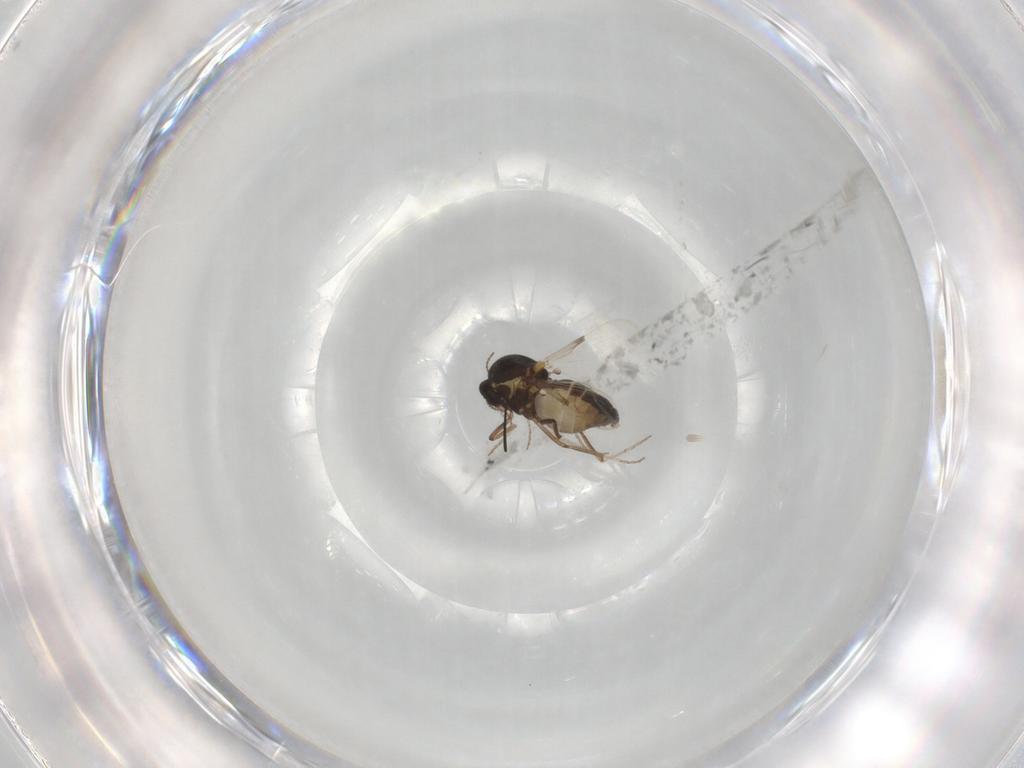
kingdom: Animalia
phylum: Arthropoda
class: Insecta
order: Diptera
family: Ceratopogonidae
